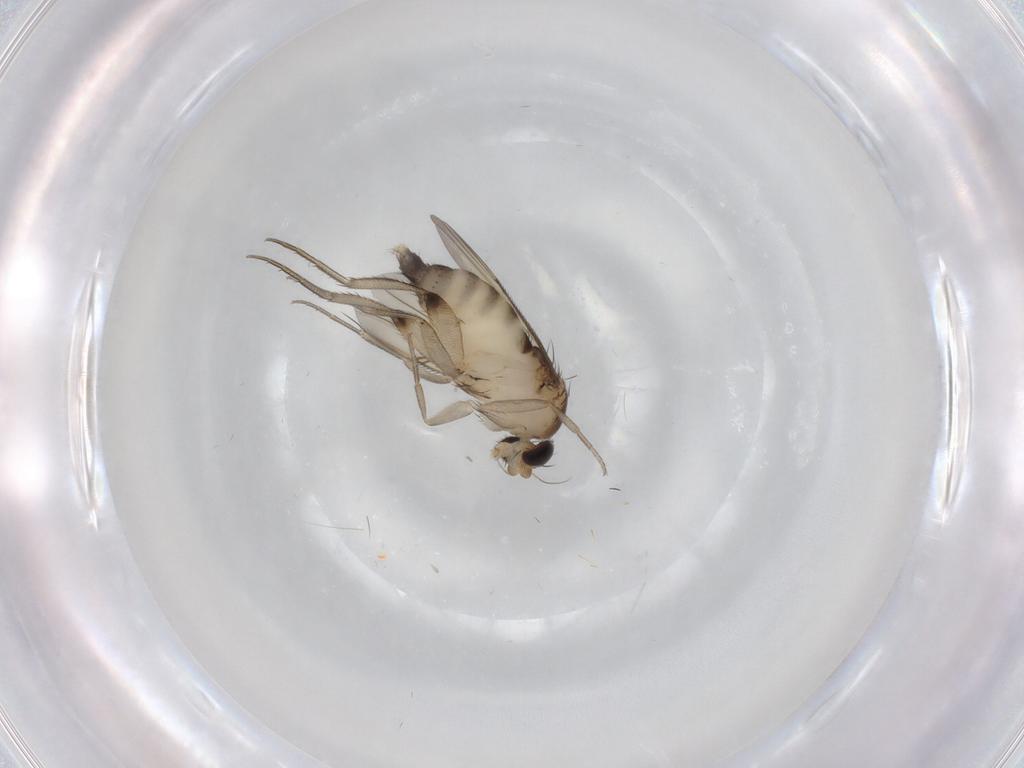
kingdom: Animalia
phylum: Arthropoda
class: Insecta
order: Diptera
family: Phoridae
